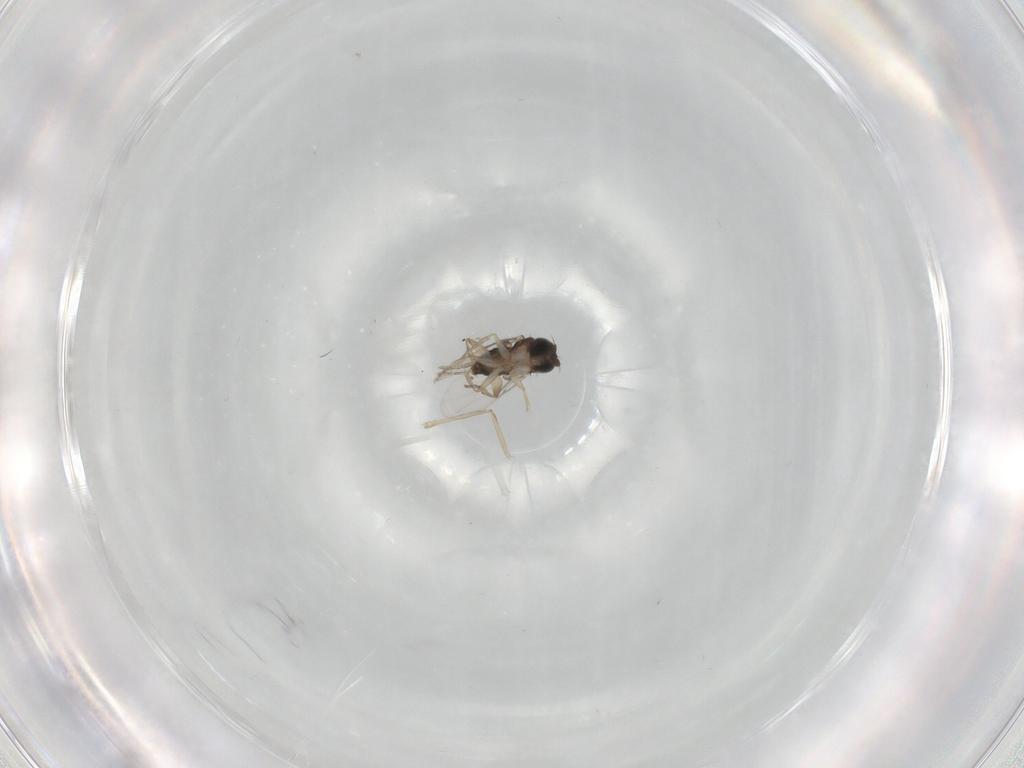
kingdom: Animalia
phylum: Arthropoda
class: Insecta
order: Diptera
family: Phoridae
